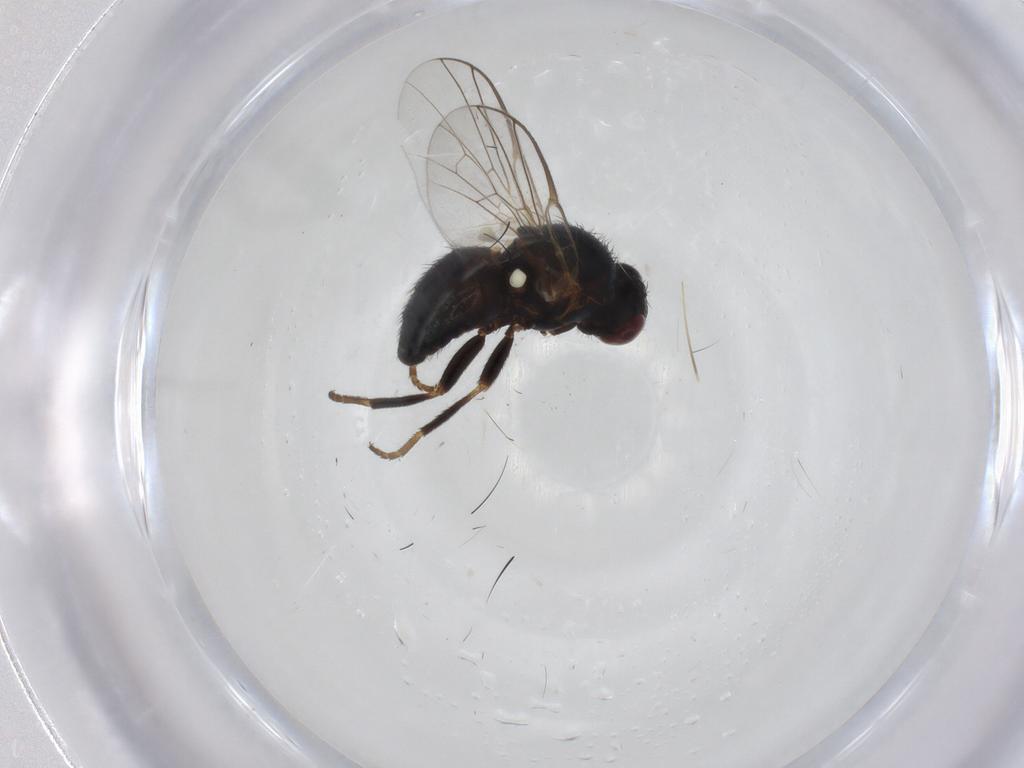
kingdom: Animalia
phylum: Arthropoda
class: Insecta
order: Diptera
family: Agromyzidae
